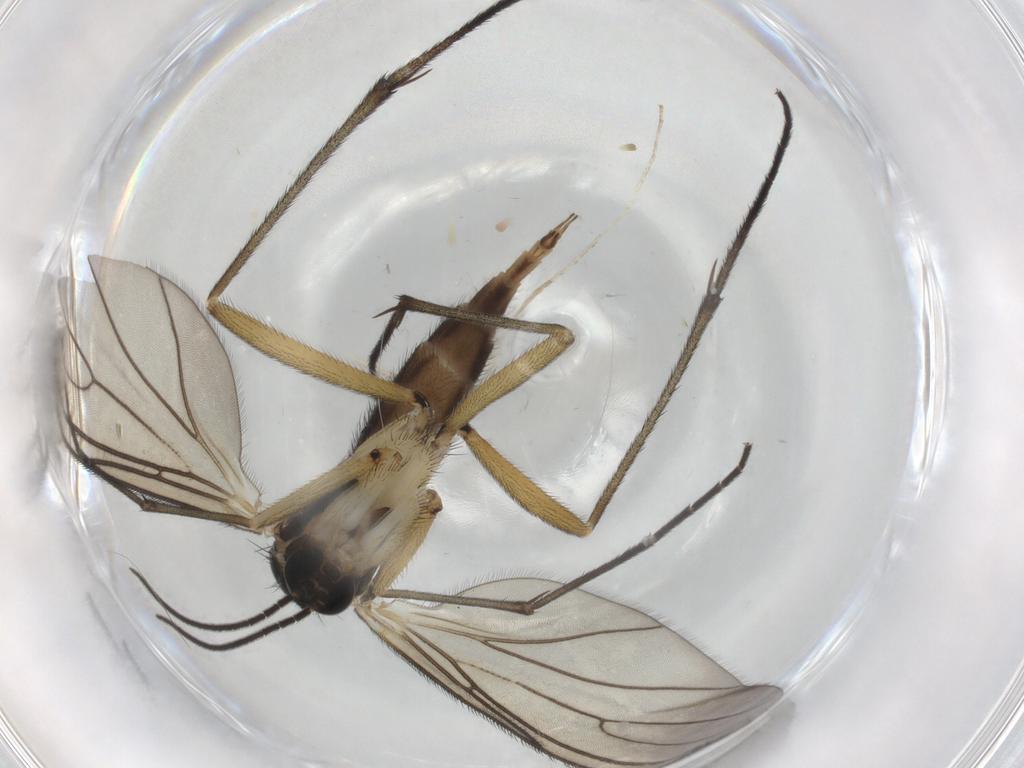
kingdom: Animalia
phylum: Arthropoda
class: Insecta
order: Diptera
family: Sciaridae
